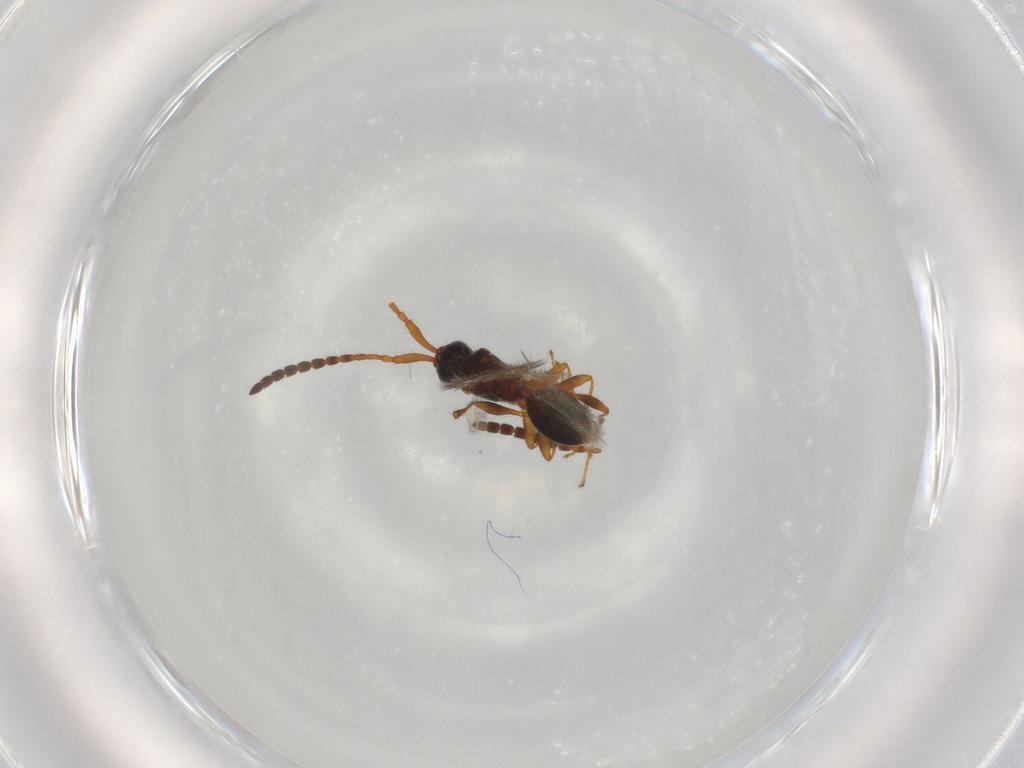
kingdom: Animalia
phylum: Arthropoda
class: Insecta
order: Hymenoptera
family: Diapriidae
